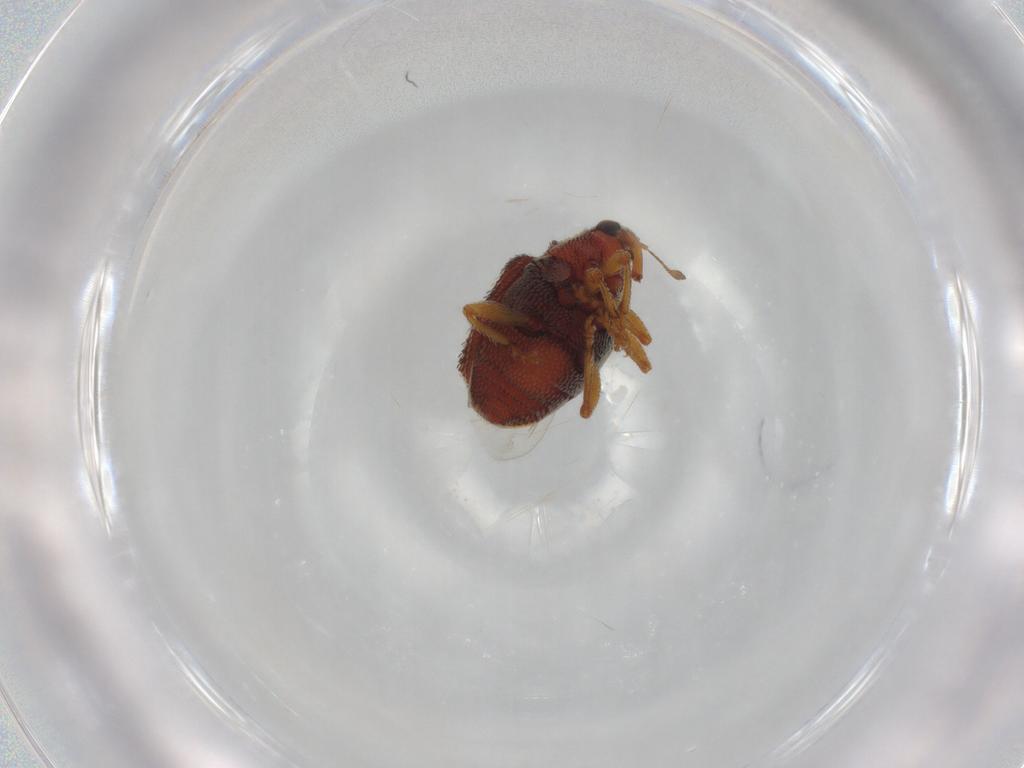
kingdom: Animalia
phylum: Arthropoda
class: Insecta
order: Coleoptera
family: Curculionidae
